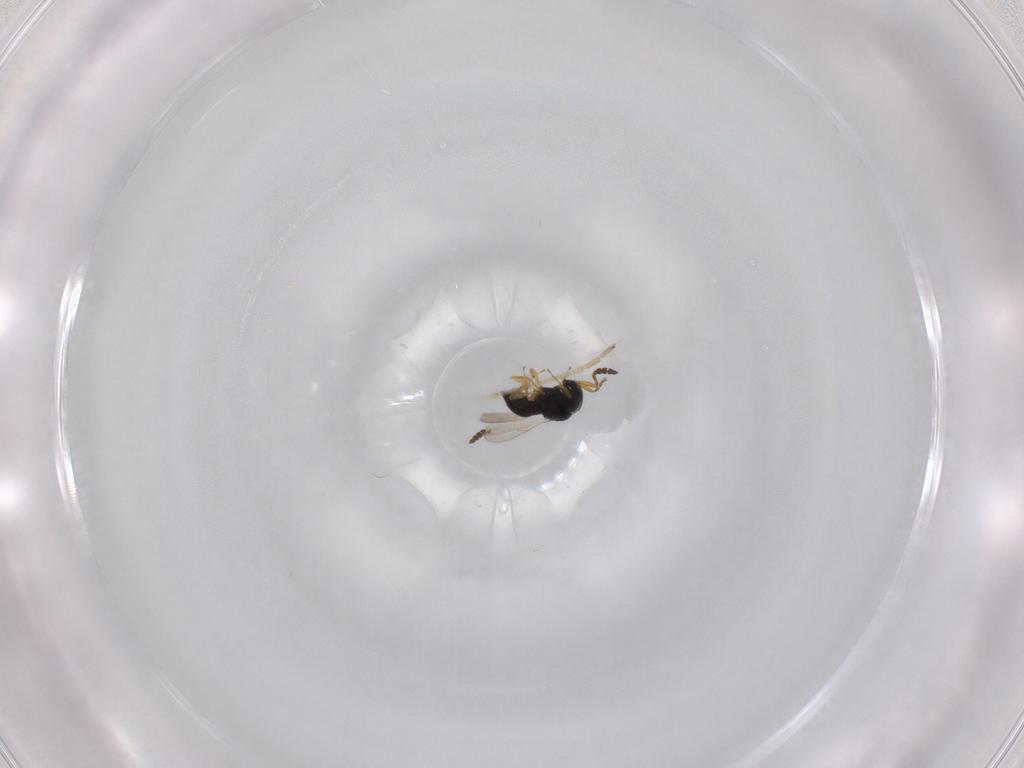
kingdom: Animalia
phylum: Arthropoda
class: Insecta
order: Hymenoptera
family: Scelionidae
